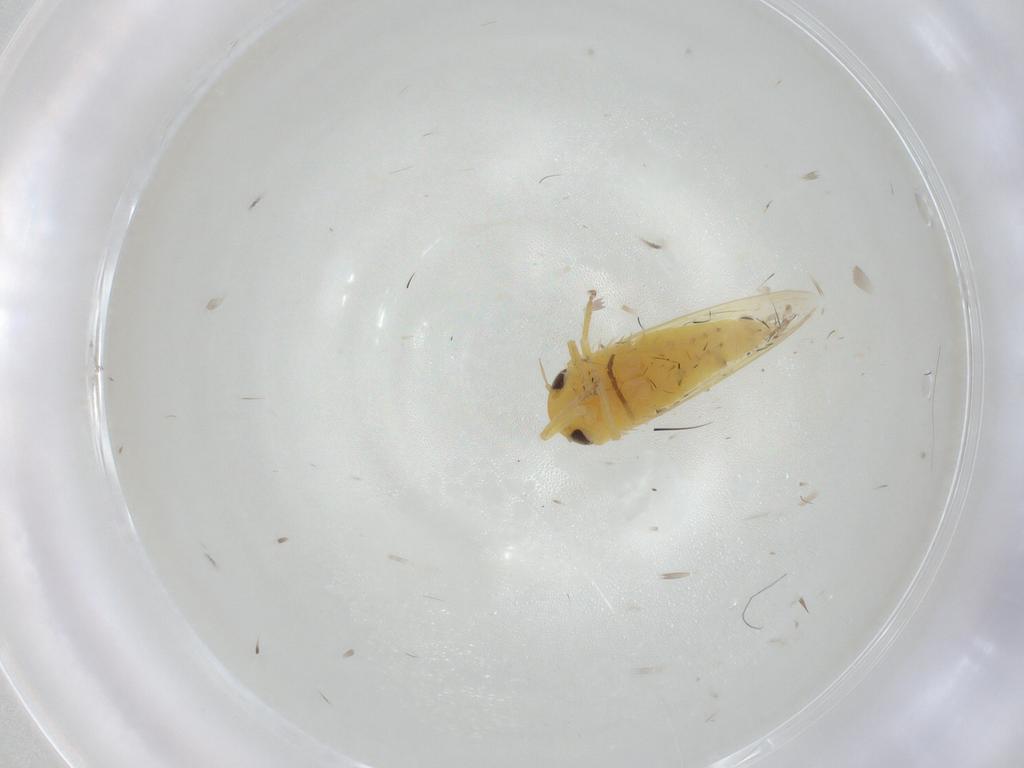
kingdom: Animalia
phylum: Arthropoda
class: Insecta
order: Hemiptera
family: Cicadellidae
